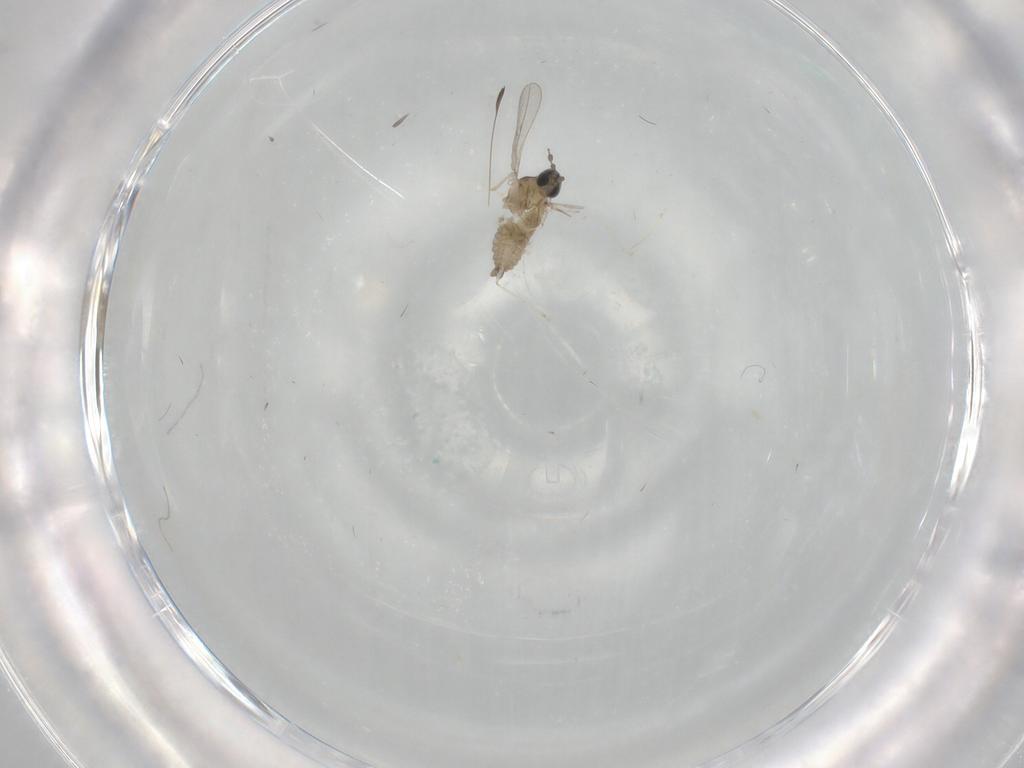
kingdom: Animalia
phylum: Arthropoda
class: Insecta
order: Diptera
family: Cecidomyiidae
